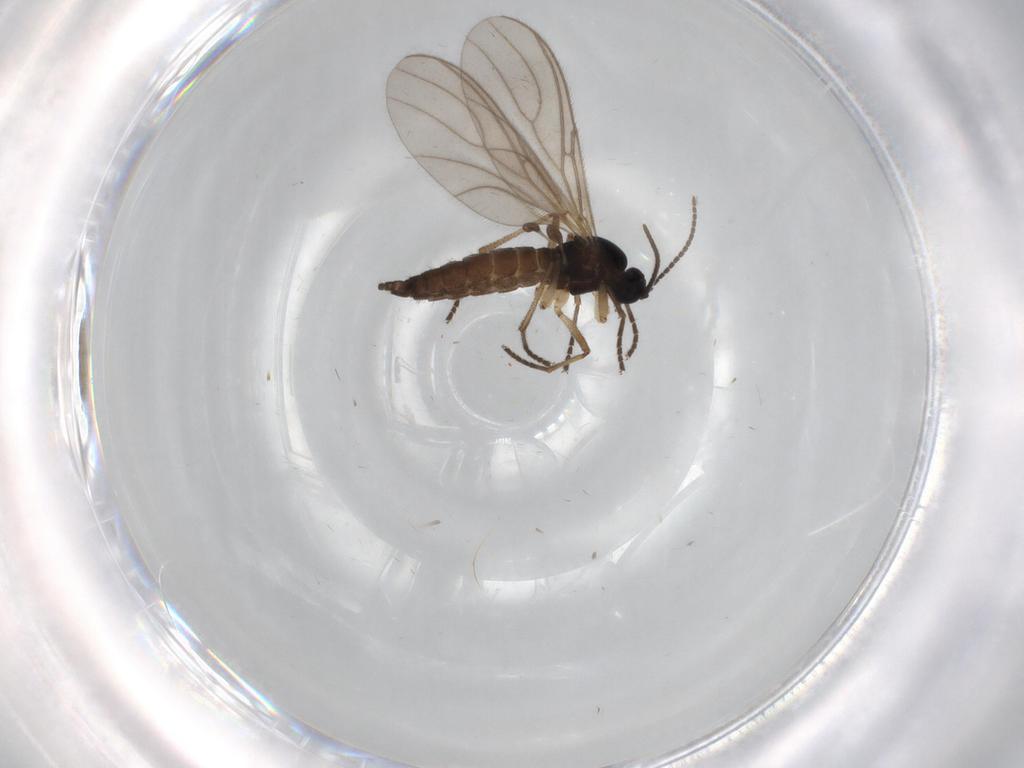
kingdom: Animalia
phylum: Arthropoda
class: Insecta
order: Diptera
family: Sciaridae
